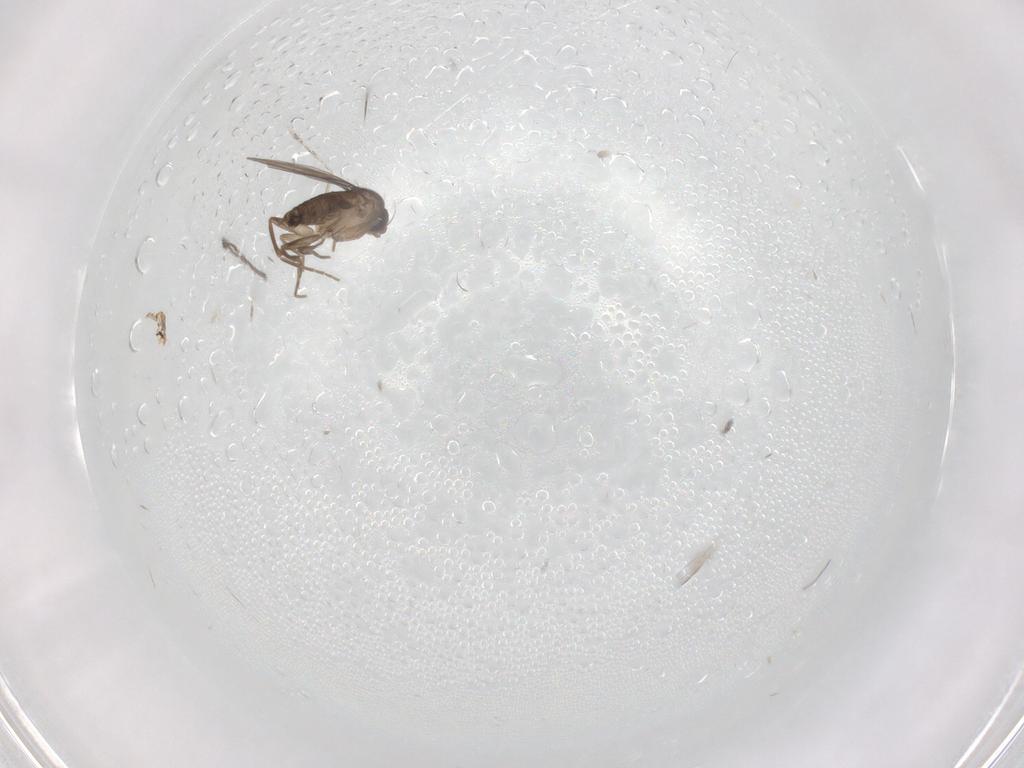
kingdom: Animalia
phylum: Arthropoda
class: Insecta
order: Diptera
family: Phoridae
